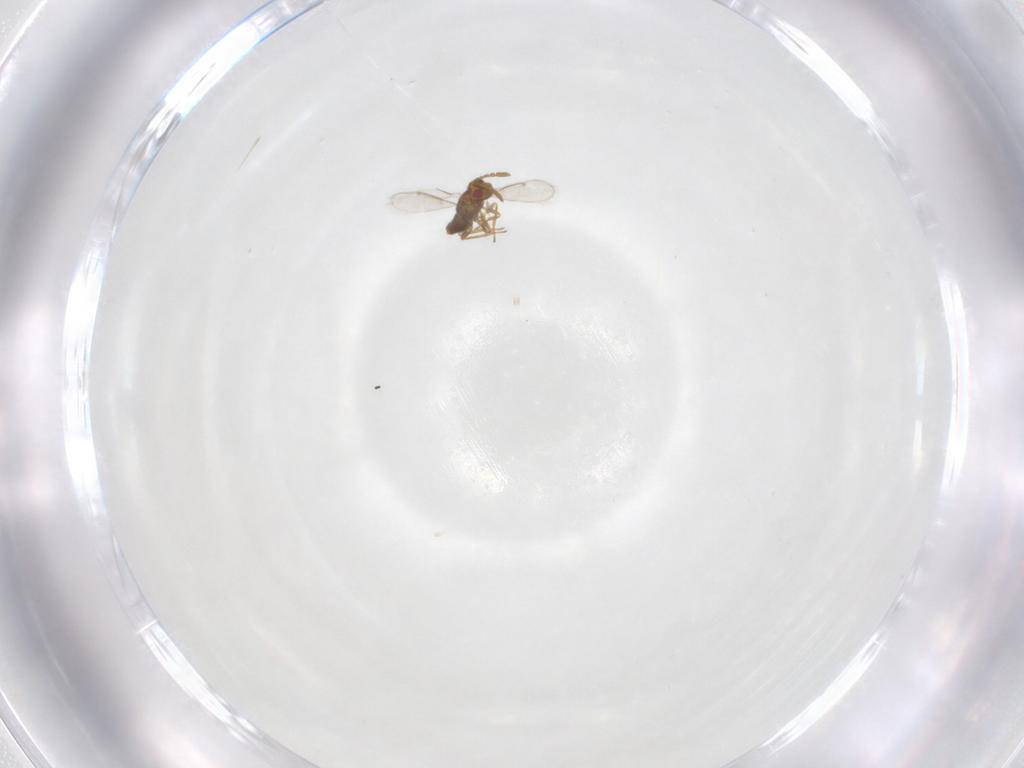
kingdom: Animalia
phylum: Arthropoda
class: Insecta
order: Hymenoptera
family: Aphelinidae
